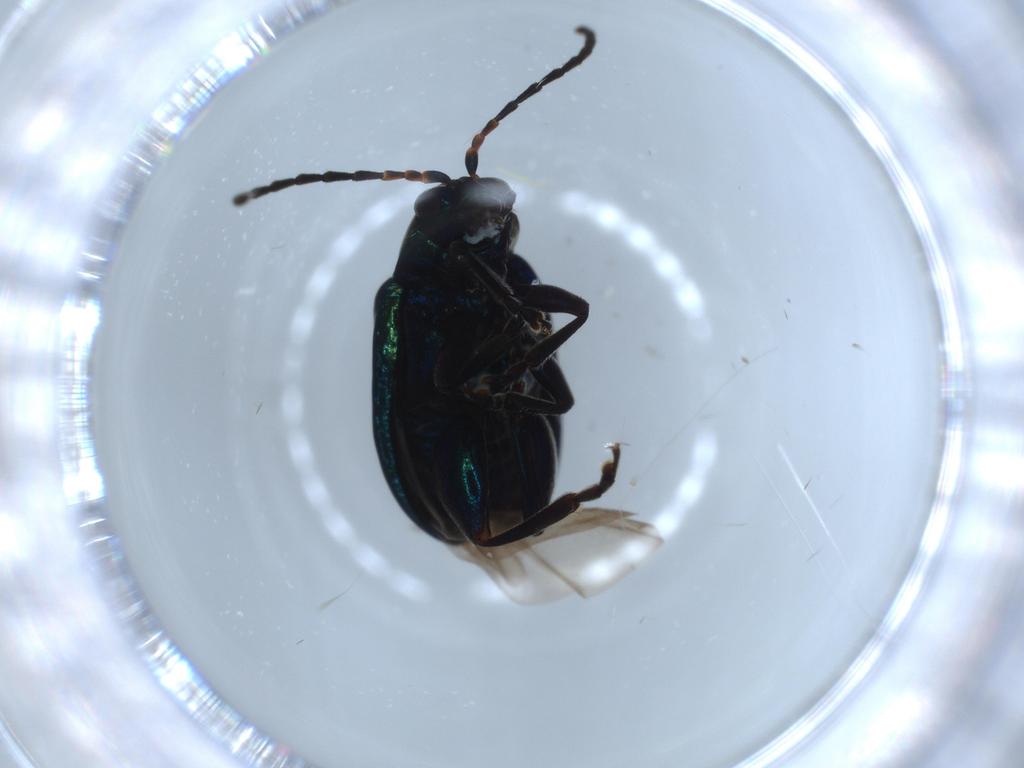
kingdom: Animalia
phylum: Arthropoda
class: Insecta
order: Coleoptera
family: Chrysomelidae
